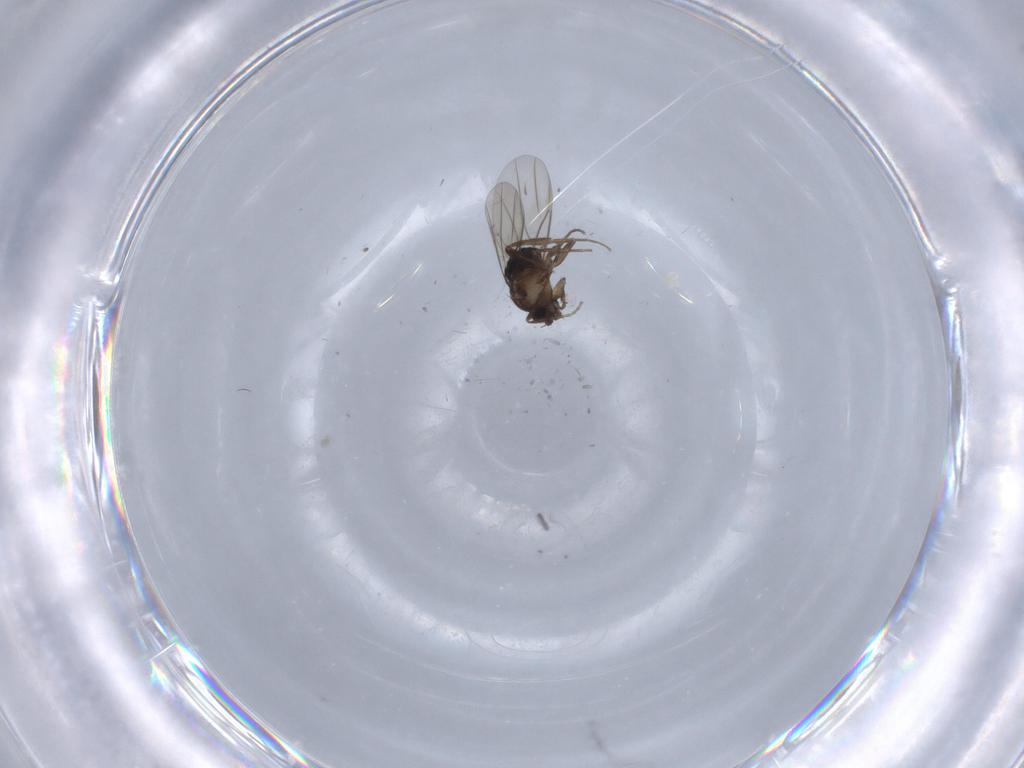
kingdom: Animalia
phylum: Arthropoda
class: Insecta
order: Diptera
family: Phoridae
